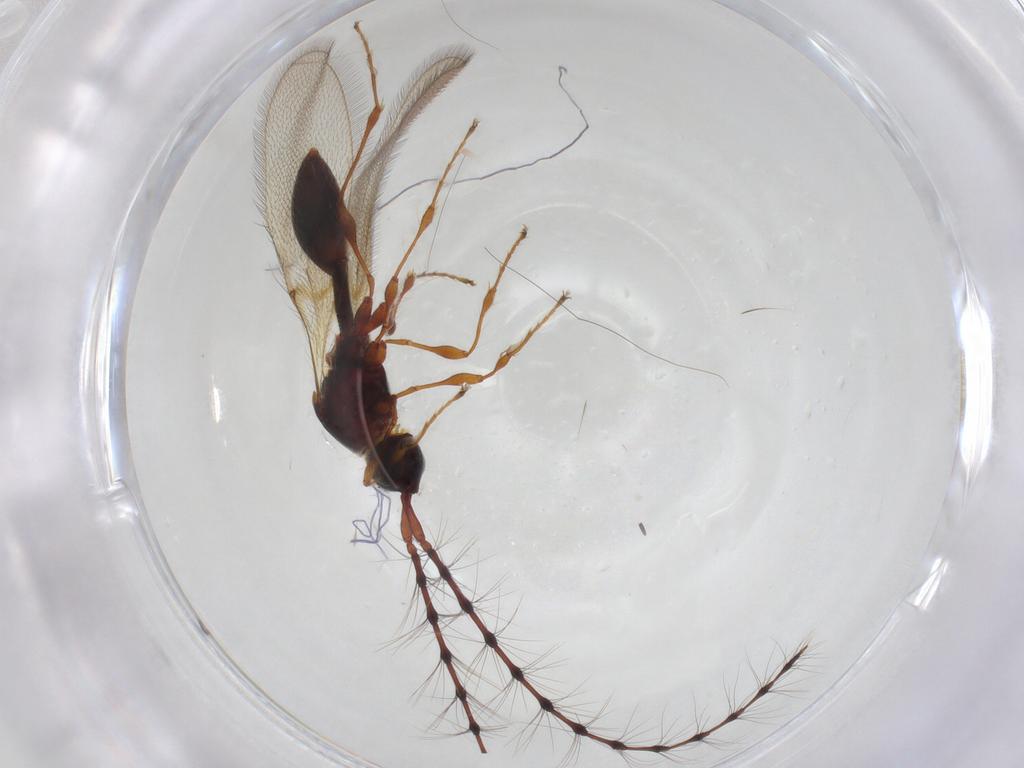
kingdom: Animalia
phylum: Arthropoda
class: Insecta
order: Hymenoptera
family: Diapriidae
